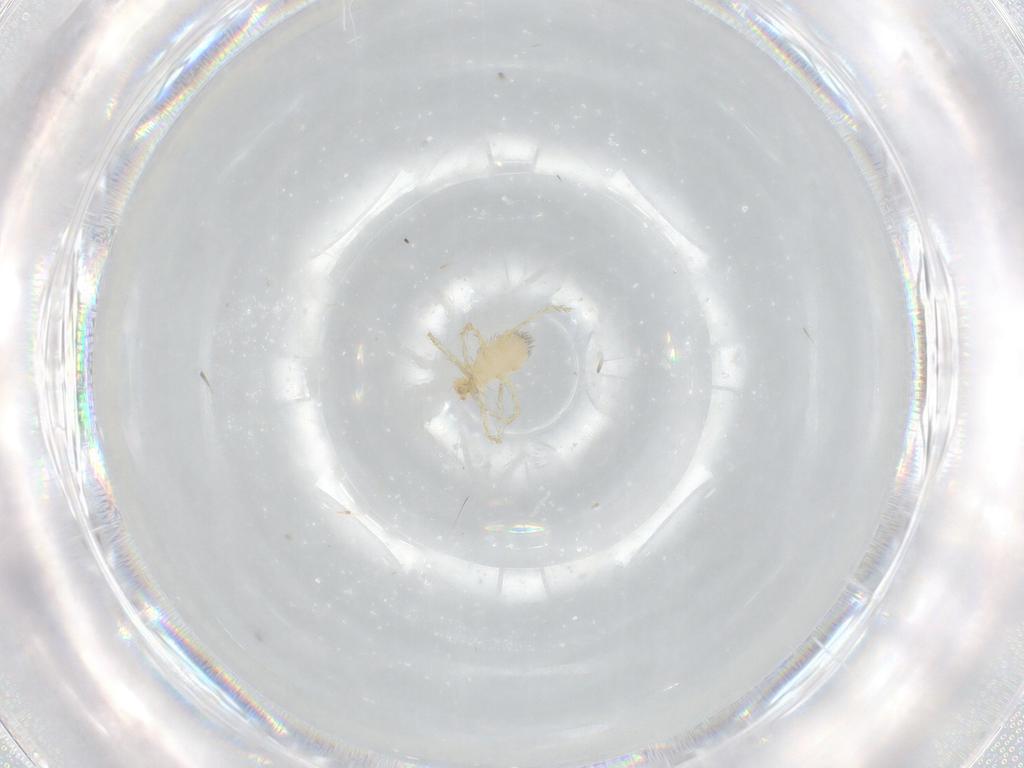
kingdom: Animalia
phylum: Arthropoda
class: Arachnida
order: Trombidiformes
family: Erythraeidae
